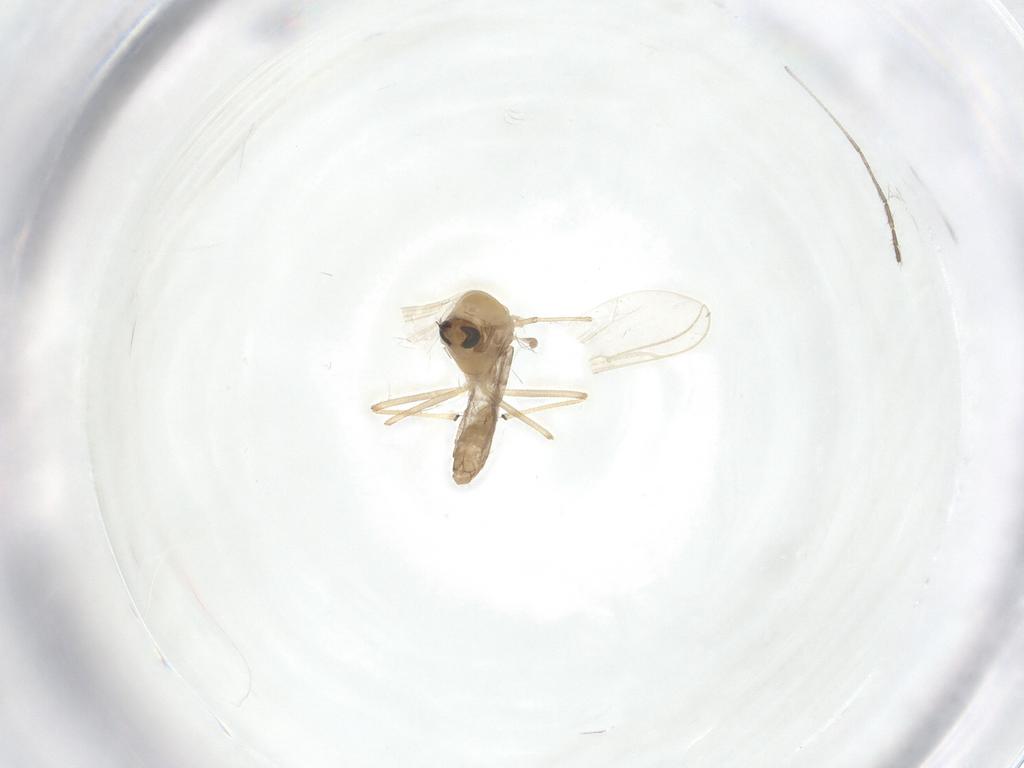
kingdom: Animalia
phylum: Arthropoda
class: Insecta
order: Diptera
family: Chironomidae
